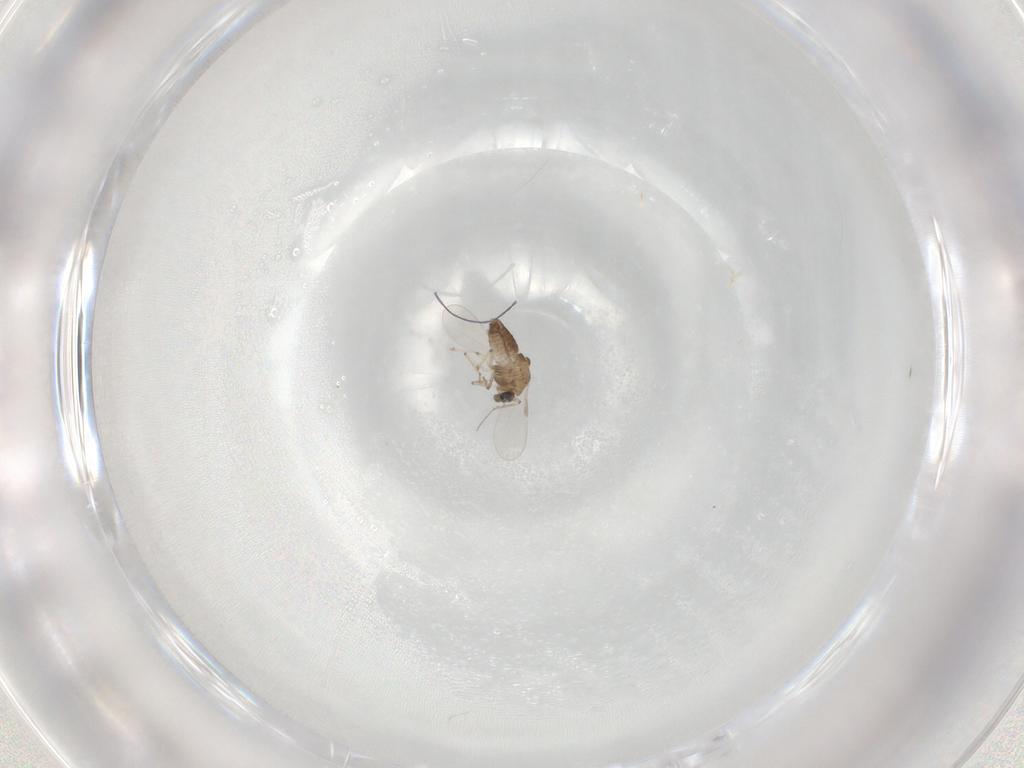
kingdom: Animalia
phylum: Arthropoda
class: Insecta
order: Diptera
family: Chironomidae
